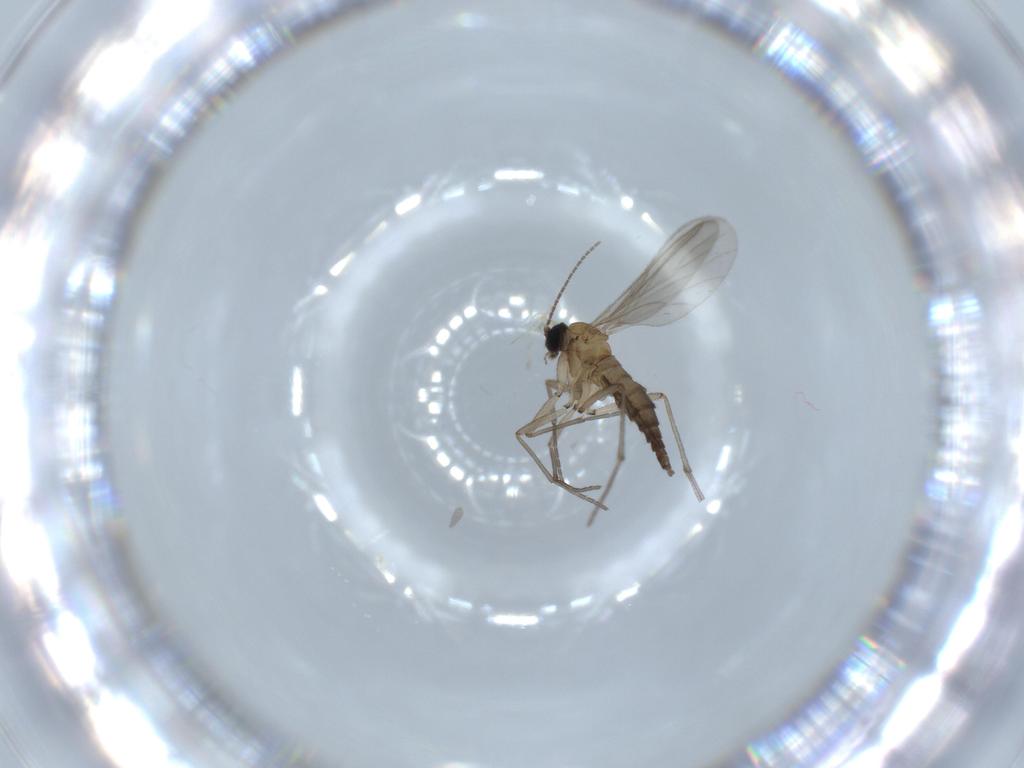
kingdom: Animalia
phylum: Arthropoda
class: Insecta
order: Diptera
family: Sciaridae
